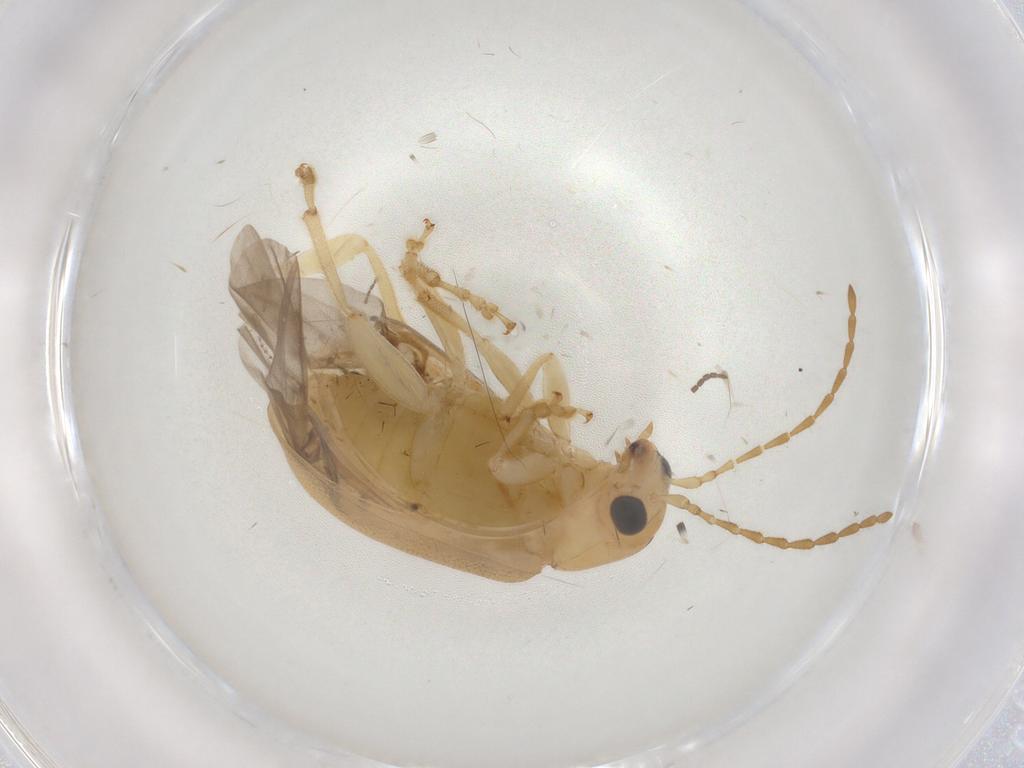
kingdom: Animalia
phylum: Arthropoda
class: Insecta
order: Coleoptera
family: Chrysomelidae
